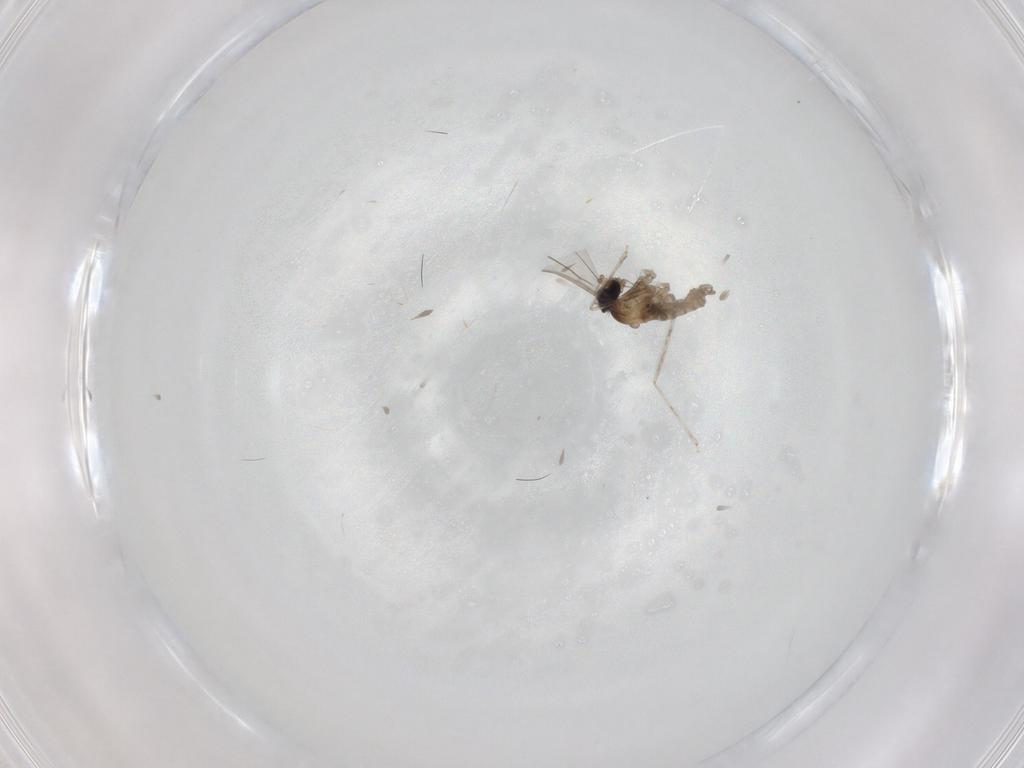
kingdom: Animalia
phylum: Arthropoda
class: Insecta
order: Diptera
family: Cecidomyiidae
